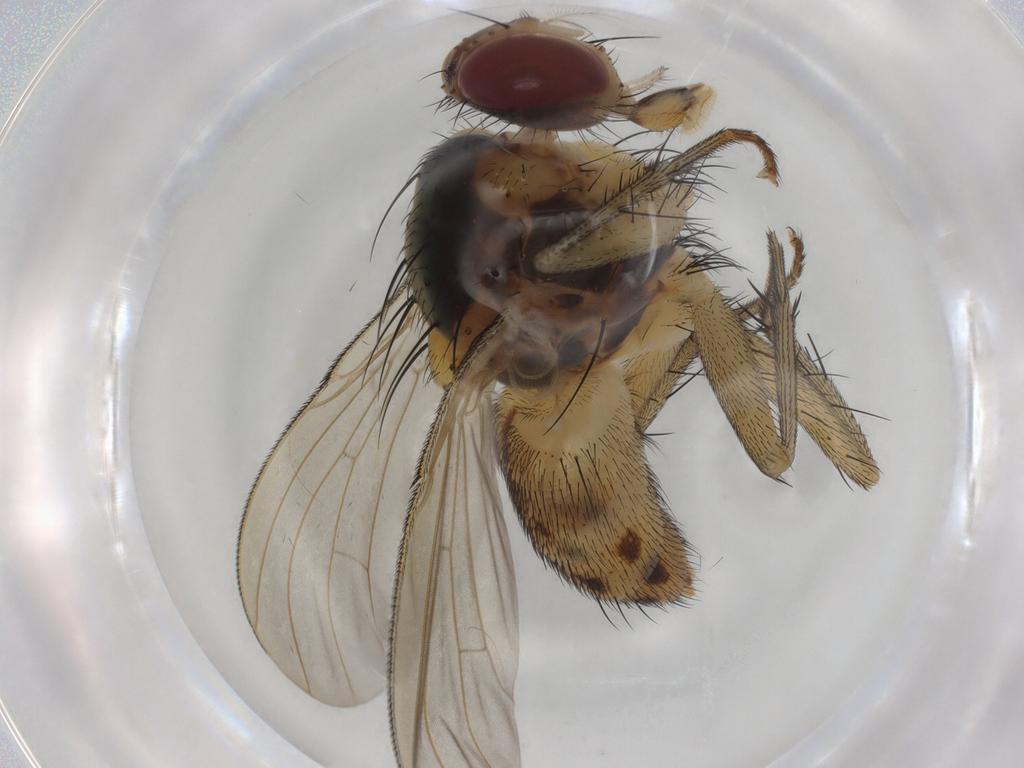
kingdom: Animalia
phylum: Arthropoda
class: Insecta
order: Diptera
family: Muscidae
